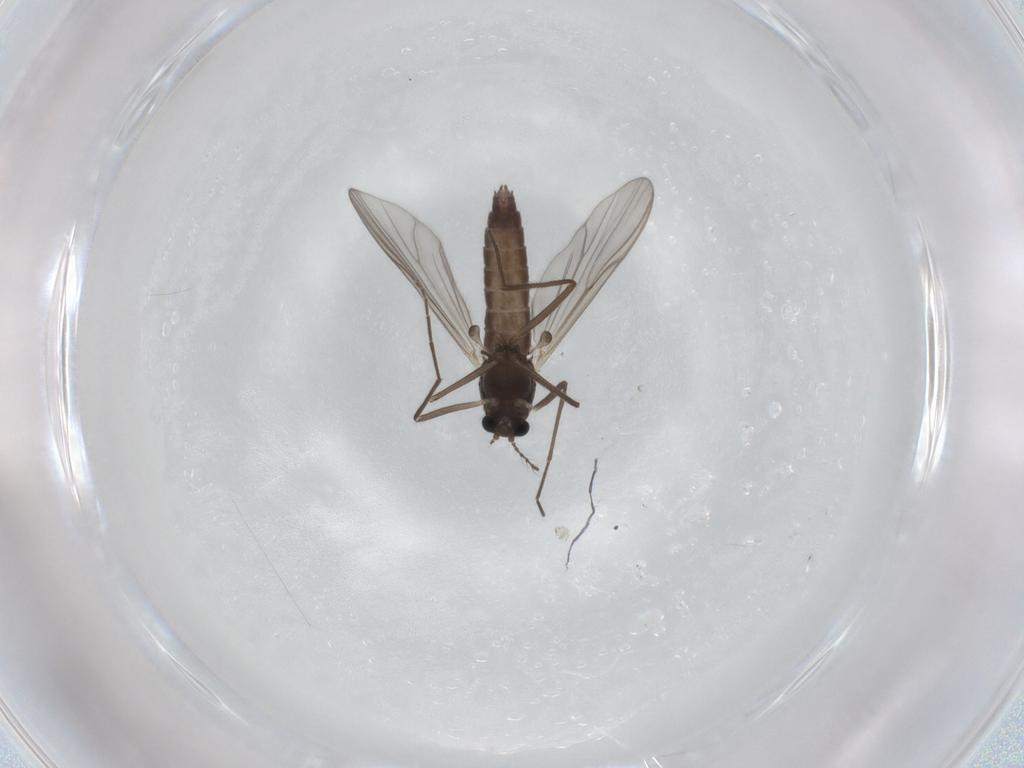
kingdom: Animalia
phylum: Arthropoda
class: Insecta
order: Diptera
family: Chironomidae
